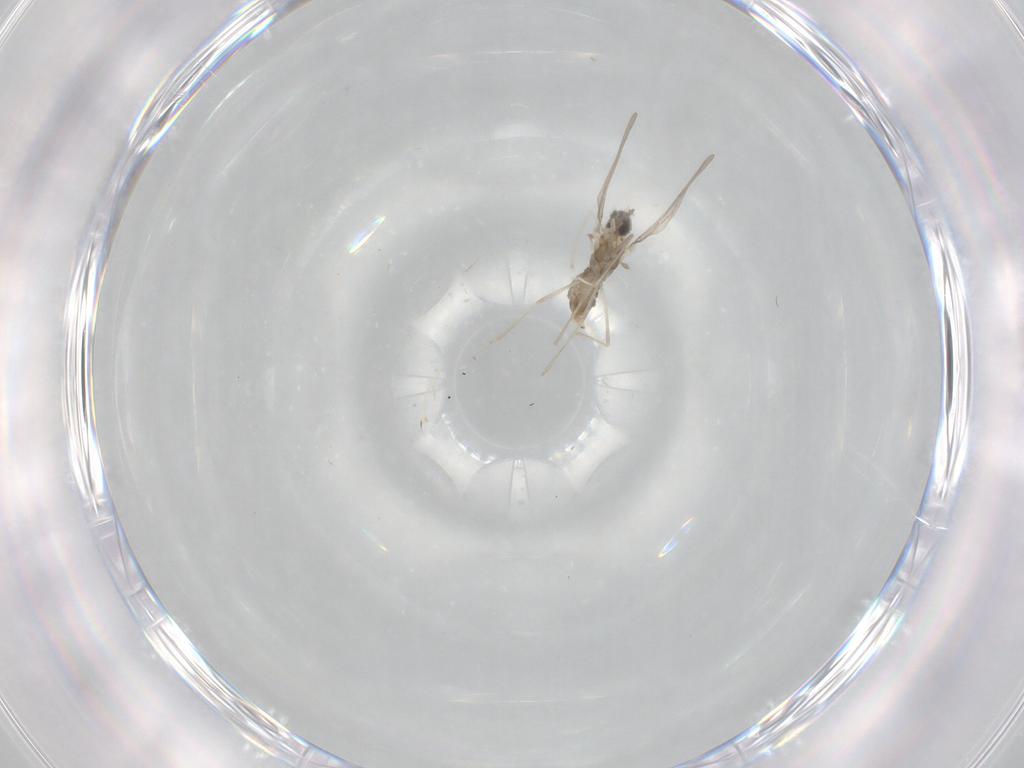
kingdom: Animalia
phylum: Arthropoda
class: Insecta
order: Diptera
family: Cecidomyiidae
